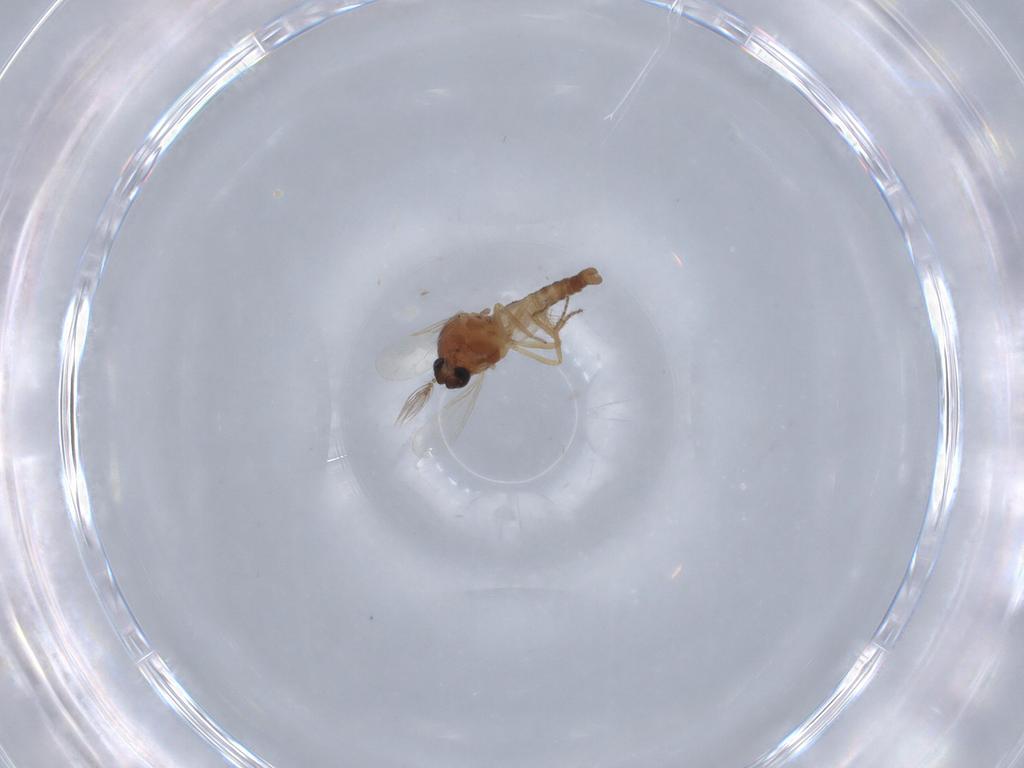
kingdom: Animalia
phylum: Arthropoda
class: Insecta
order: Diptera
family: Ceratopogonidae
